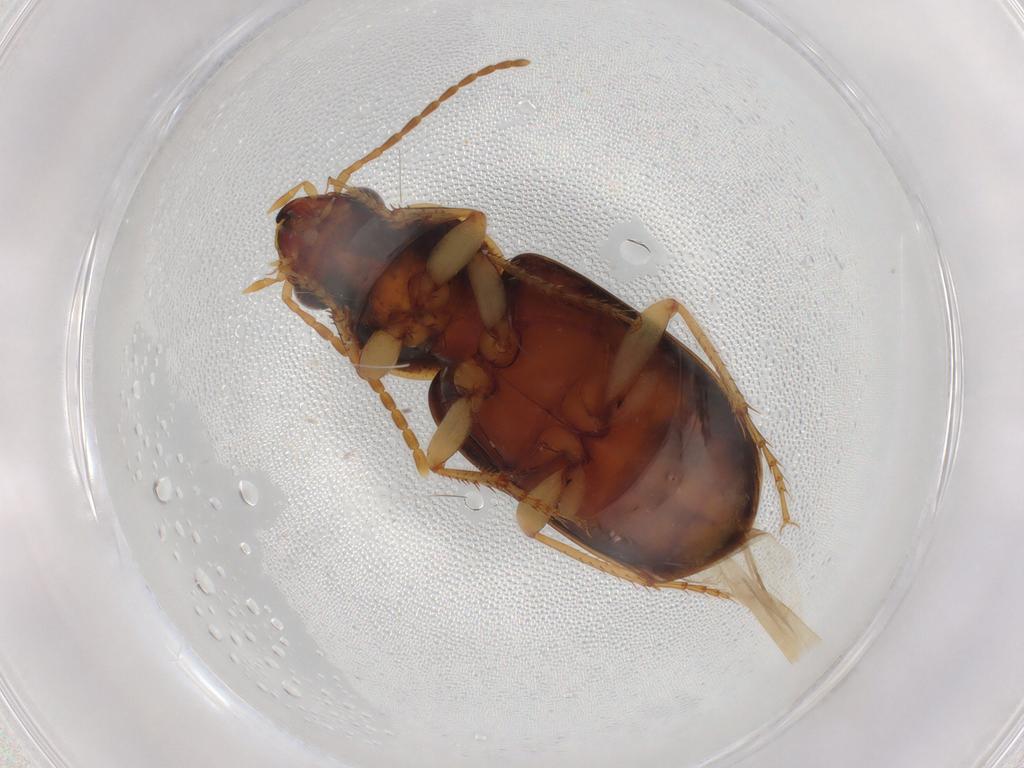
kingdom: Animalia
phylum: Arthropoda
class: Insecta
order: Coleoptera
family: Carabidae
